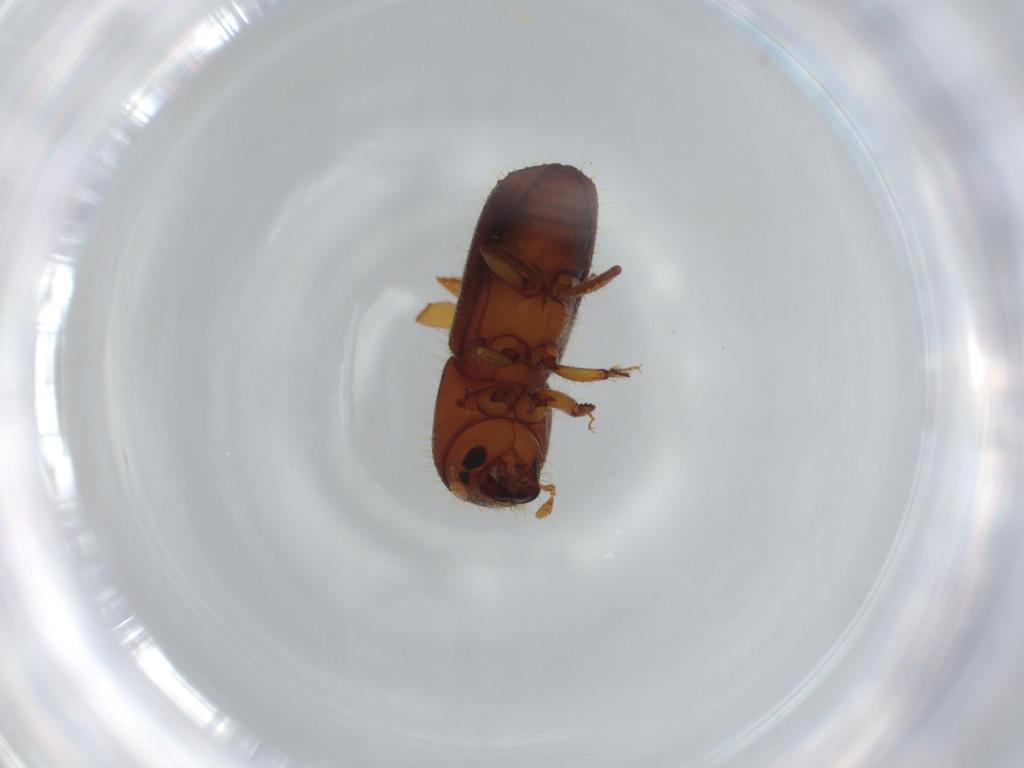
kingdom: Animalia
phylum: Arthropoda
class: Insecta
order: Coleoptera
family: Curculionidae
